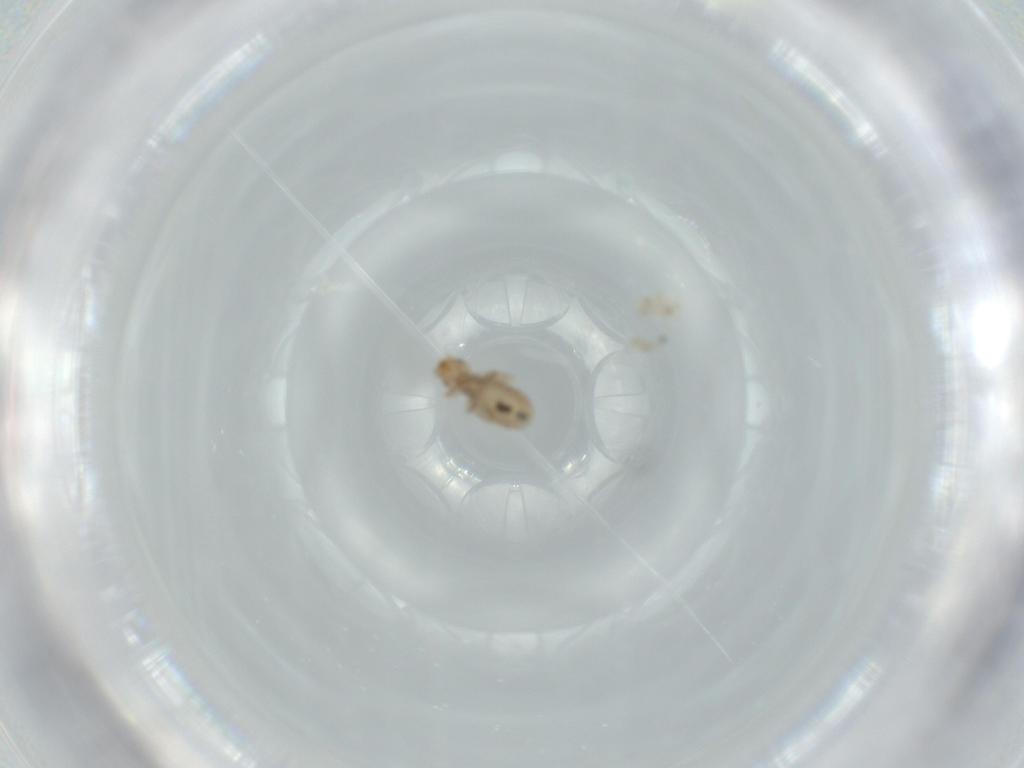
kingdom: Animalia
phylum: Arthropoda
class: Insecta
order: Psocodea
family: Liposcelididae
